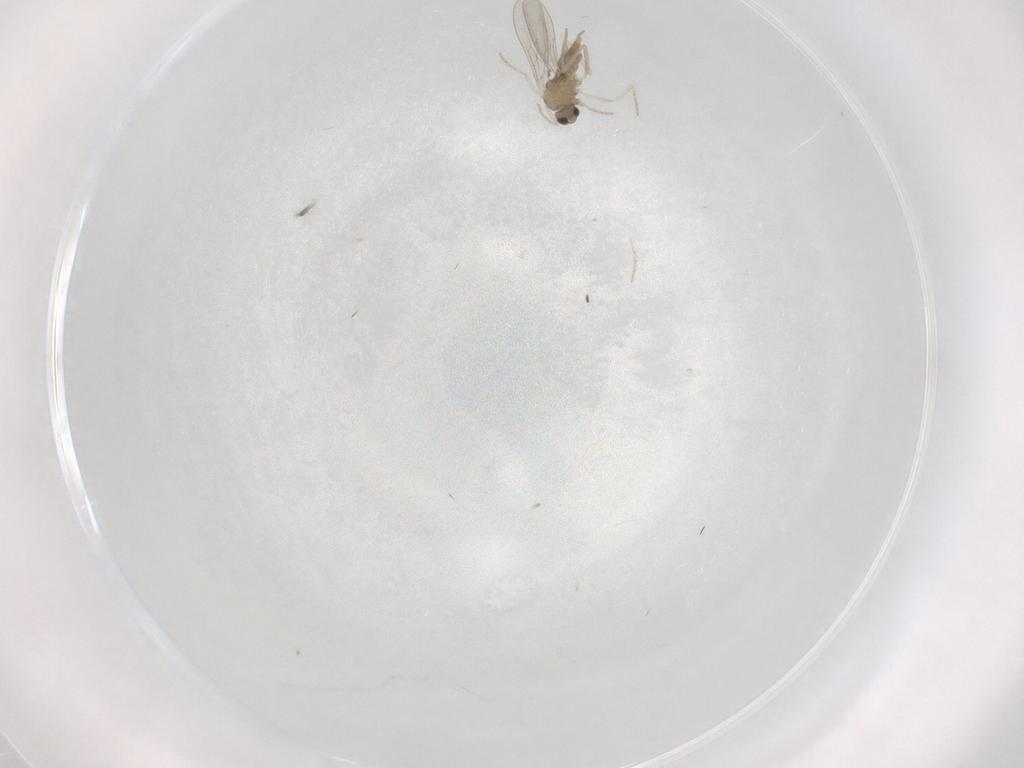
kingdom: Animalia
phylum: Arthropoda
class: Insecta
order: Diptera
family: Cecidomyiidae
